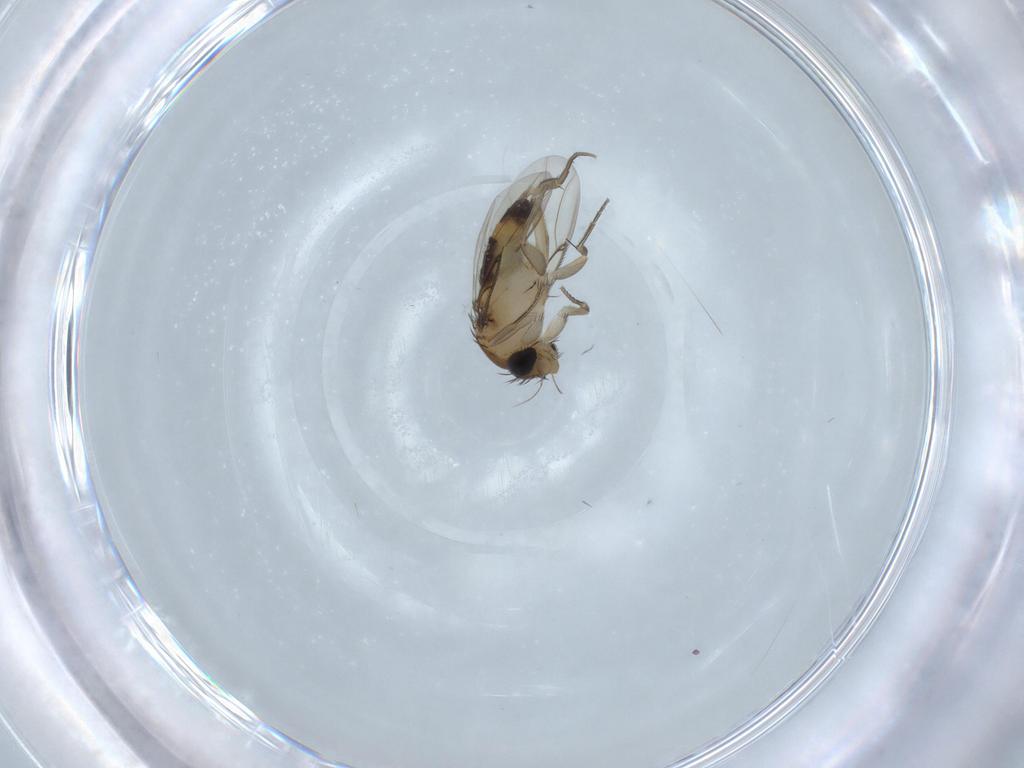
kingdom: Animalia
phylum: Arthropoda
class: Insecta
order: Diptera
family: Phoridae
